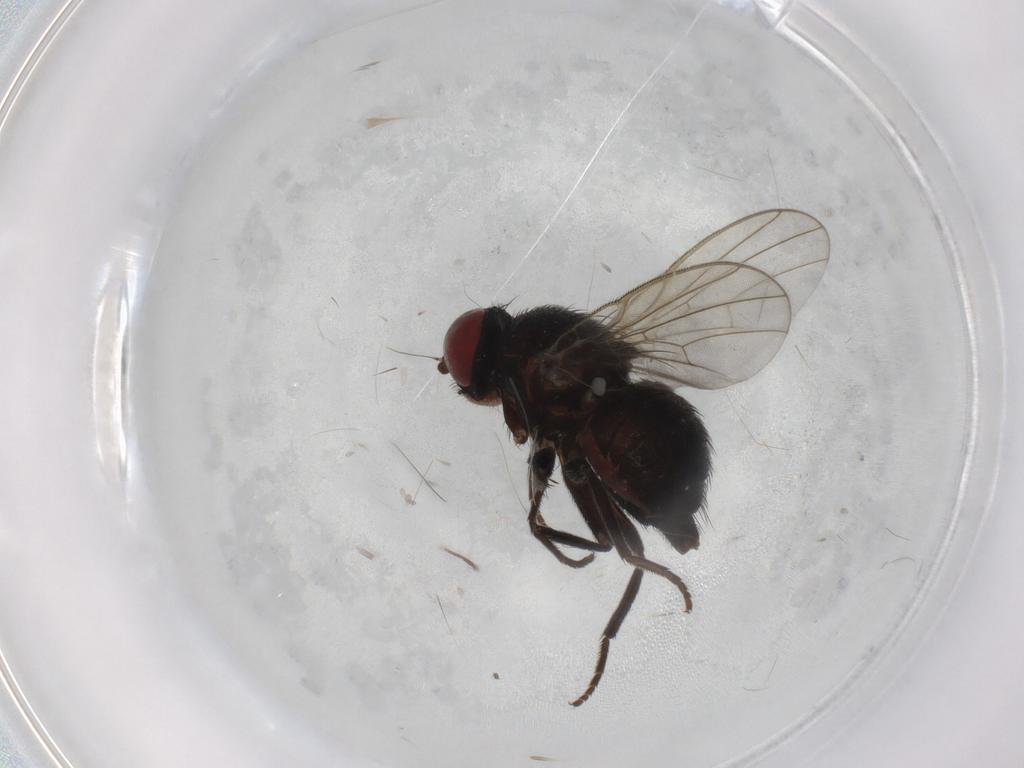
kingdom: Animalia
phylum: Arthropoda
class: Insecta
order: Diptera
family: Agromyzidae
